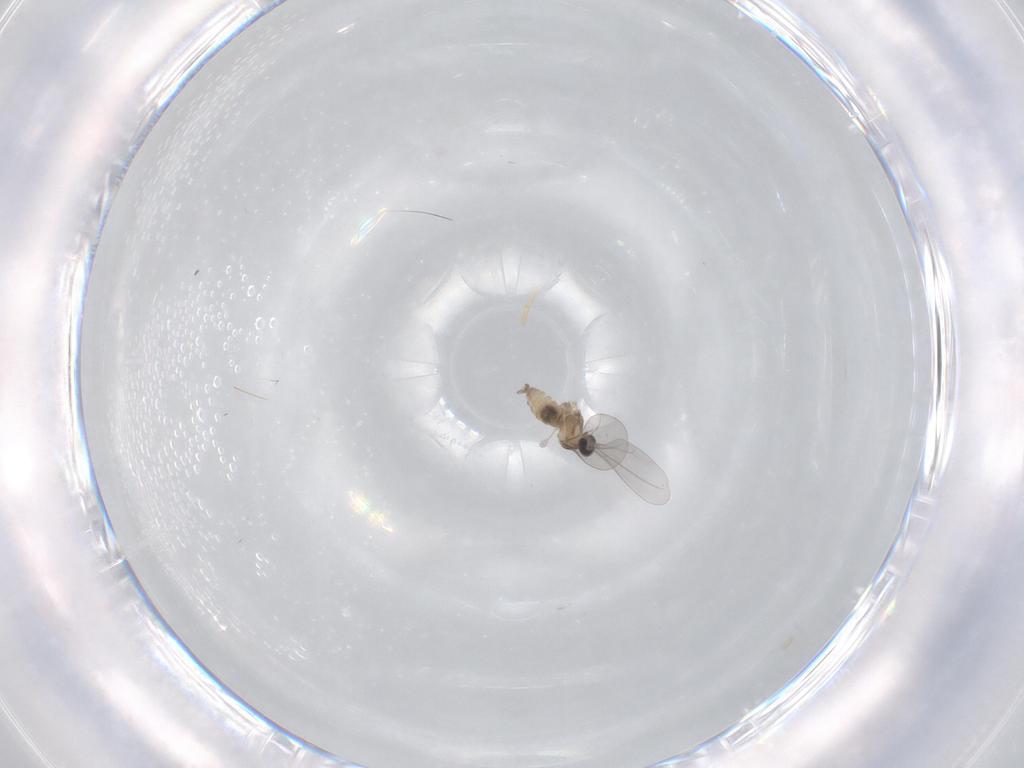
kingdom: Animalia
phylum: Arthropoda
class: Insecta
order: Diptera
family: Cecidomyiidae
